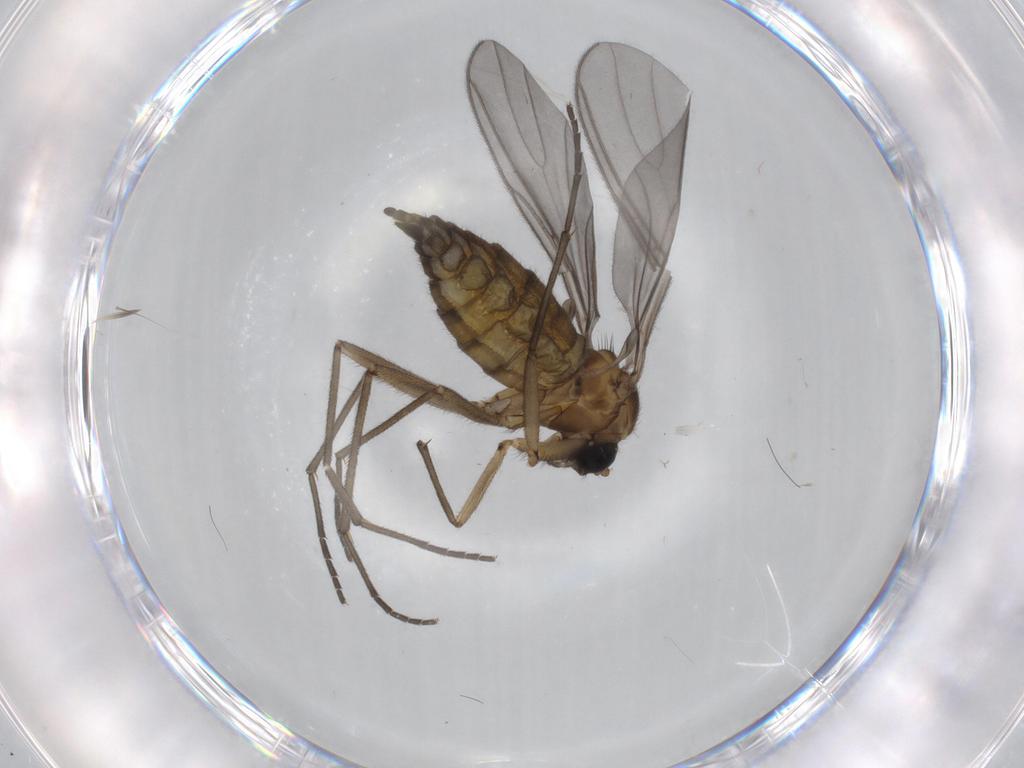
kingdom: Animalia
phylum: Arthropoda
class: Insecta
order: Diptera
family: Sciaridae
